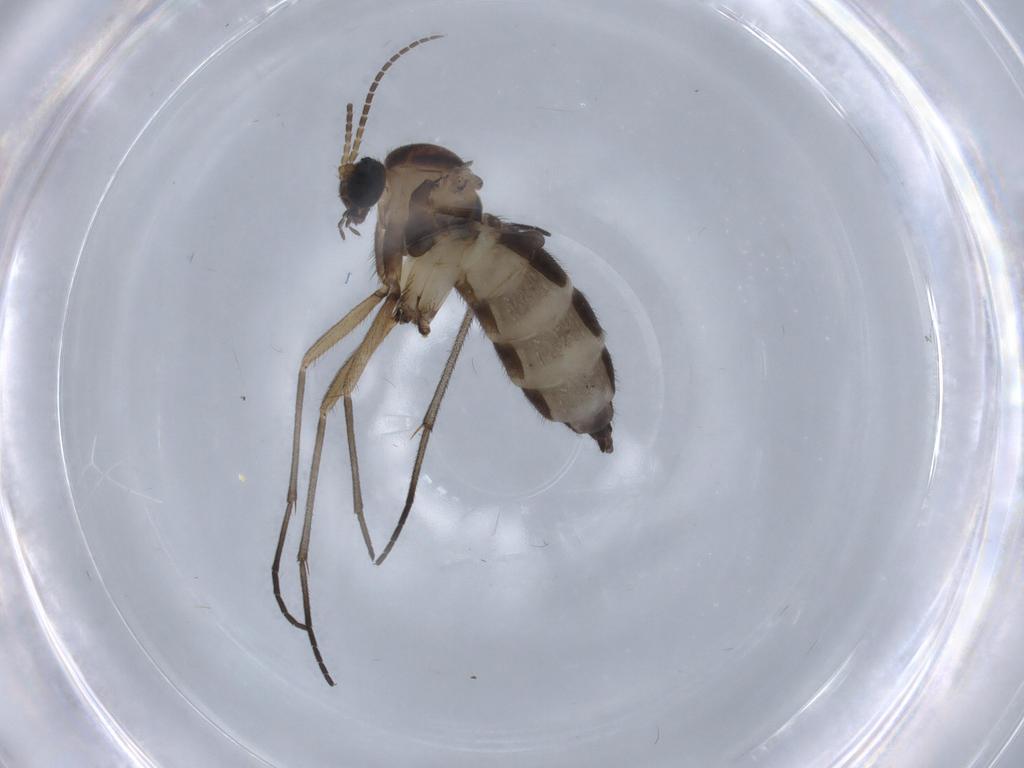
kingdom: Animalia
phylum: Arthropoda
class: Insecta
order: Diptera
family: Sciaridae
